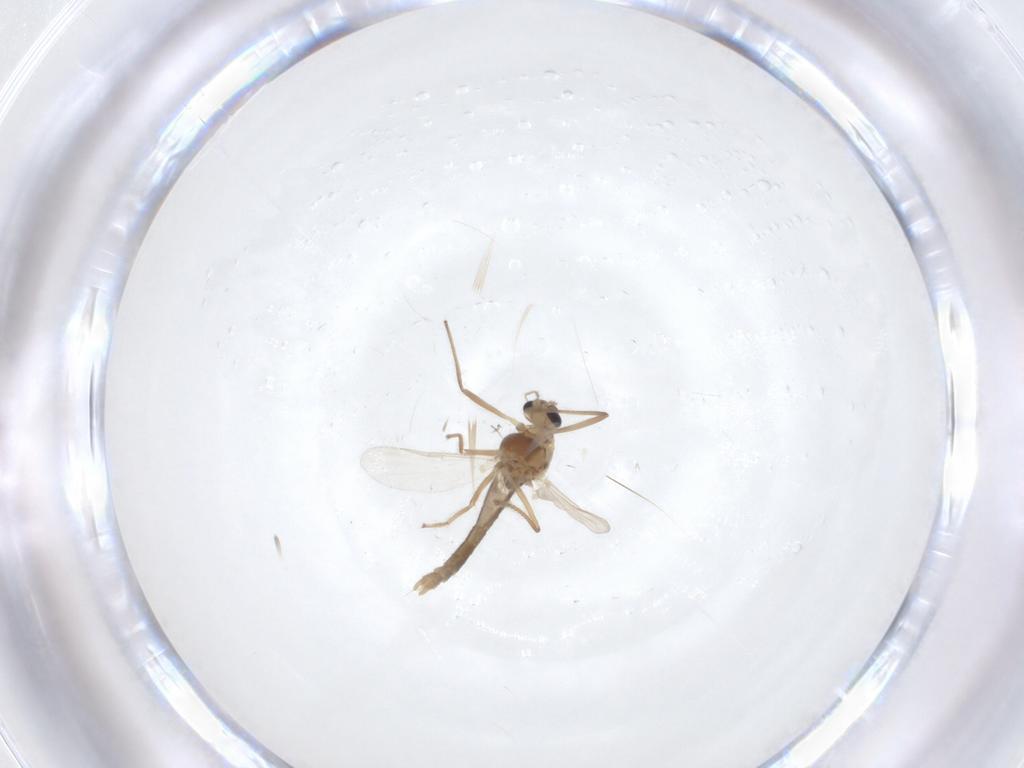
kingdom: Animalia
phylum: Arthropoda
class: Insecta
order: Diptera
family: Chironomidae
